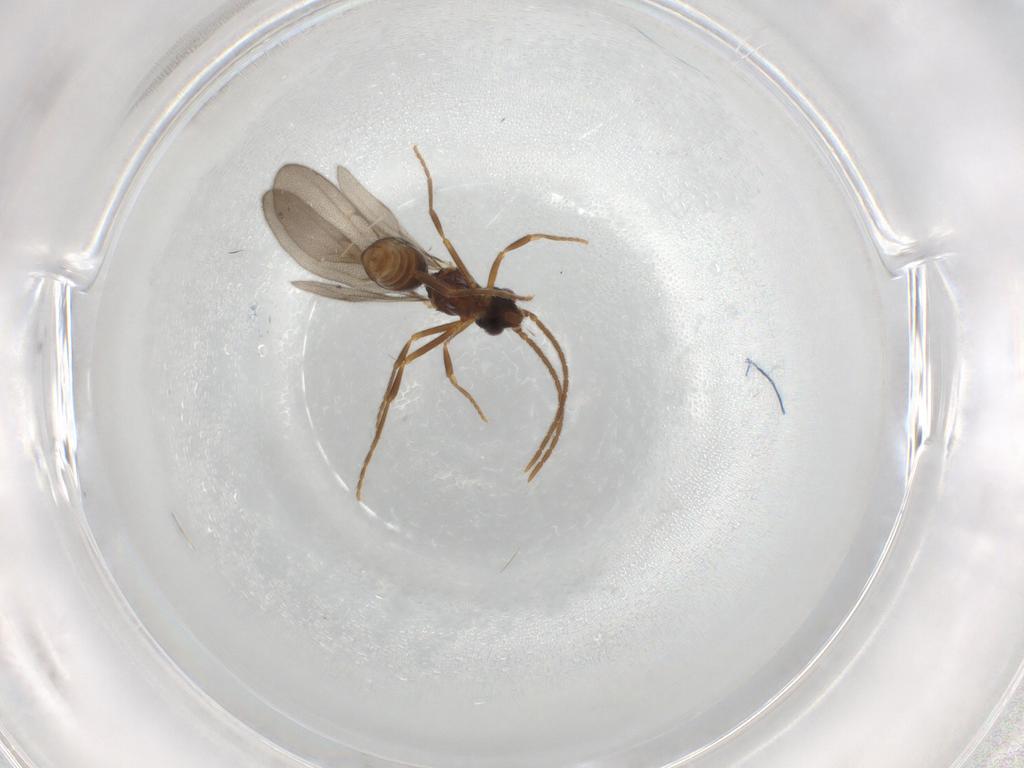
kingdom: Animalia
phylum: Arthropoda
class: Insecta
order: Hymenoptera
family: Formicidae
